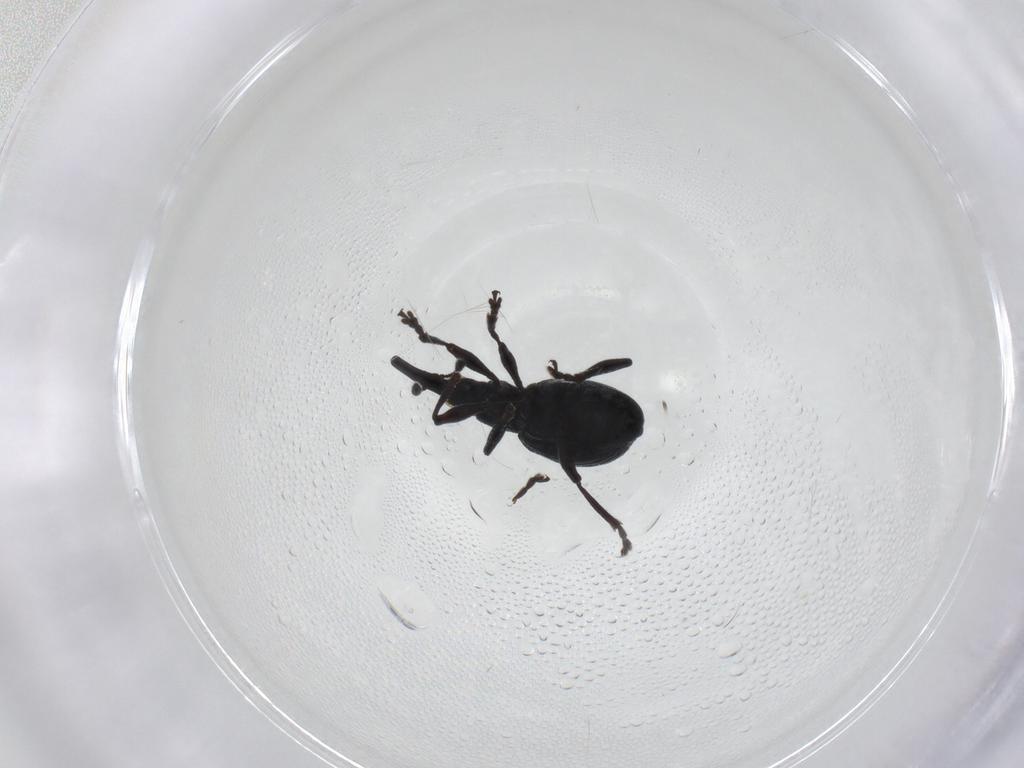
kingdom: Animalia
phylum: Arthropoda
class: Insecta
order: Coleoptera
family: Brentidae
